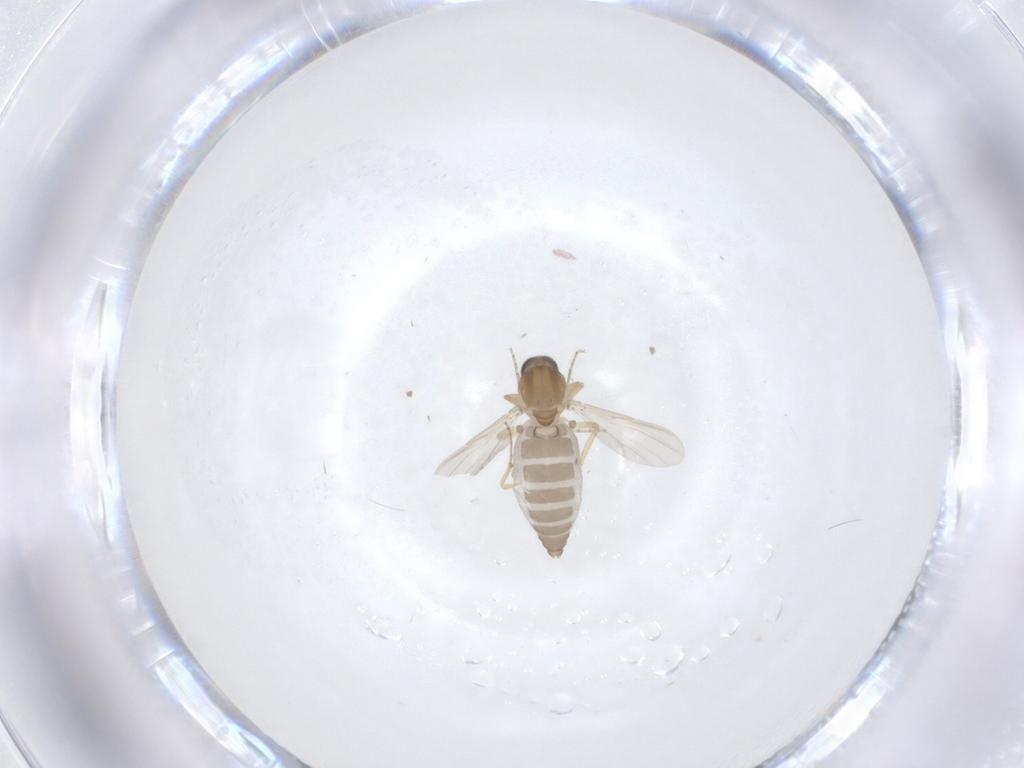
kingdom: Animalia
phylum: Arthropoda
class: Insecta
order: Diptera
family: Ceratopogonidae
